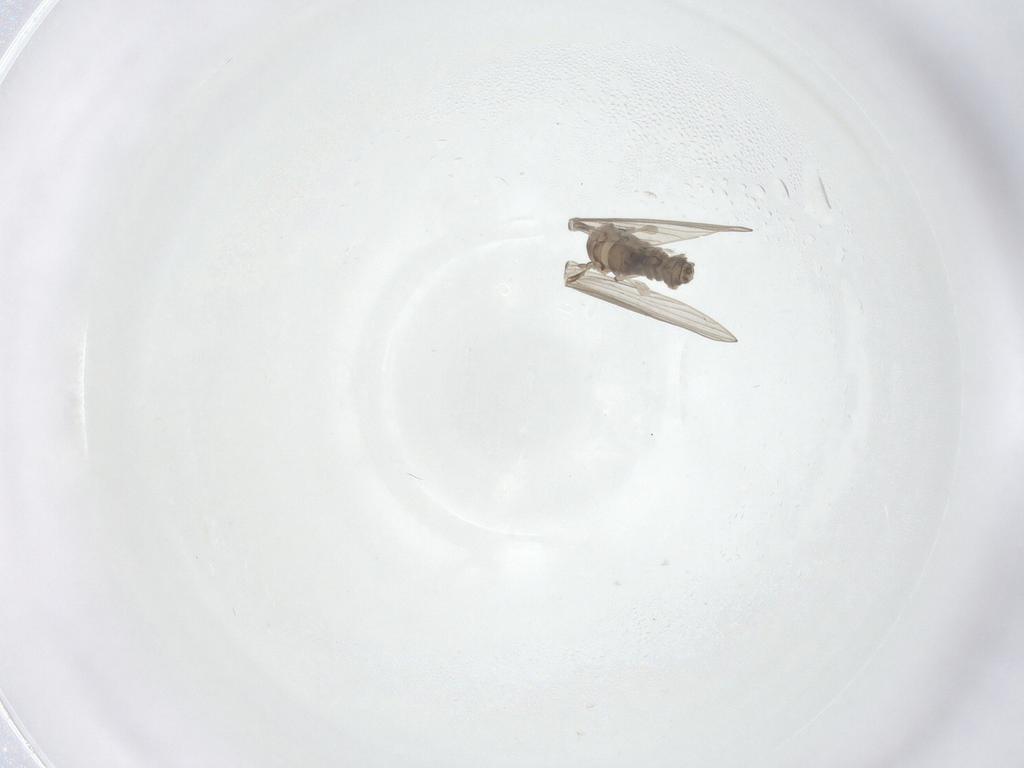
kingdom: Animalia
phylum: Arthropoda
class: Insecta
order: Diptera
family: Psychodidae
